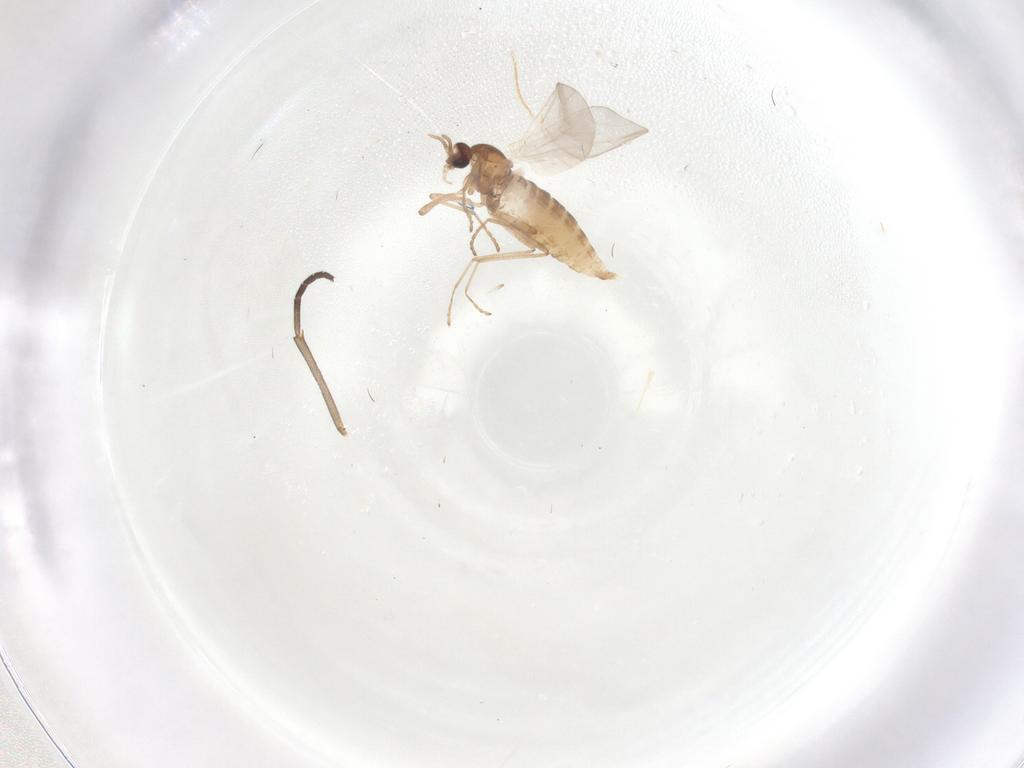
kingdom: Animalia
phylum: Arthropoda
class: Insecta
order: Diptera
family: Cecidomyiidae
